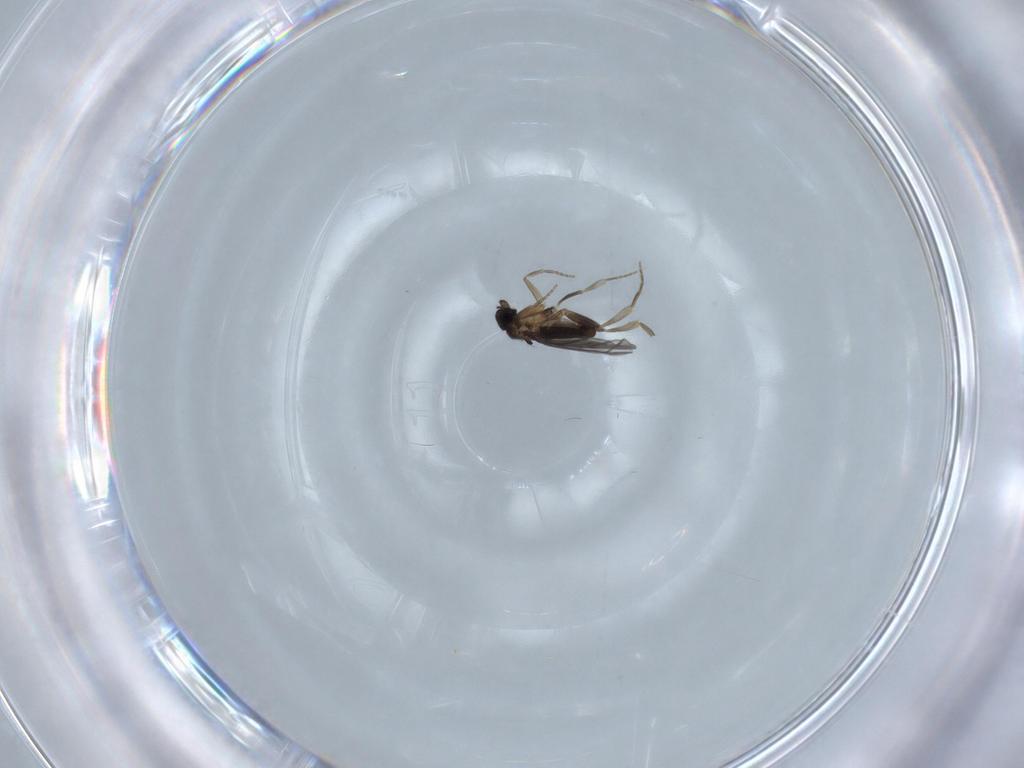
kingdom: Animalia
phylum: Arthropoda
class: Insecta
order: Diptera
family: Phoridae
